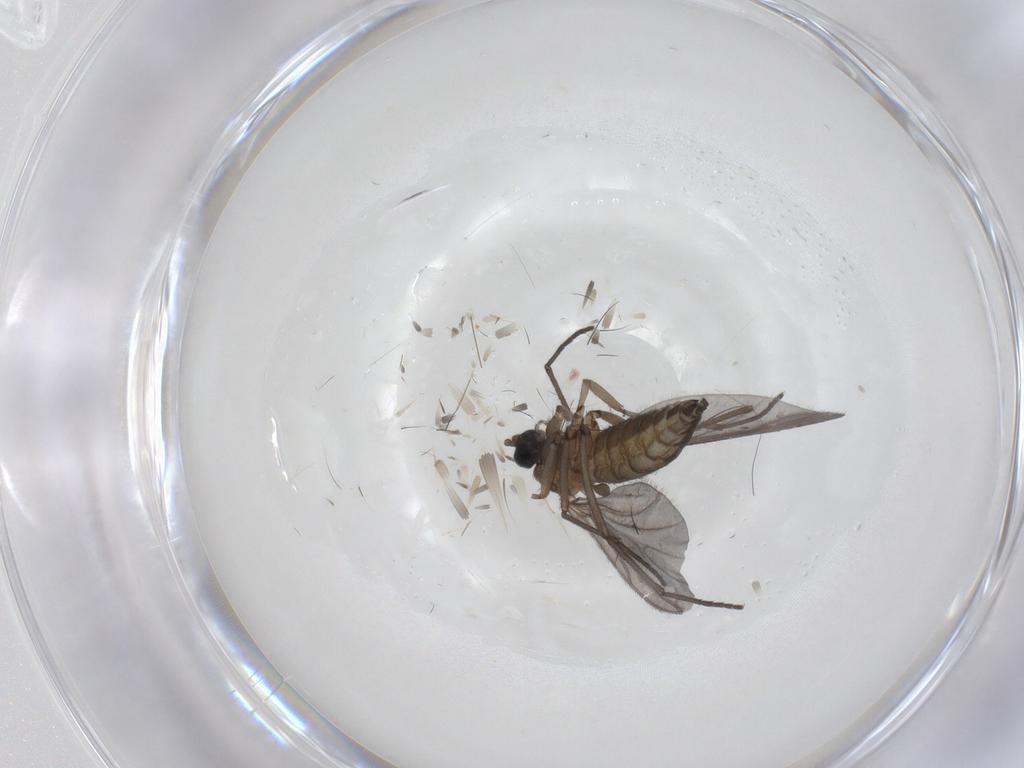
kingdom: Animalia
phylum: Arthropoda
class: Insecta
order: Diptera
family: Sciaridae
